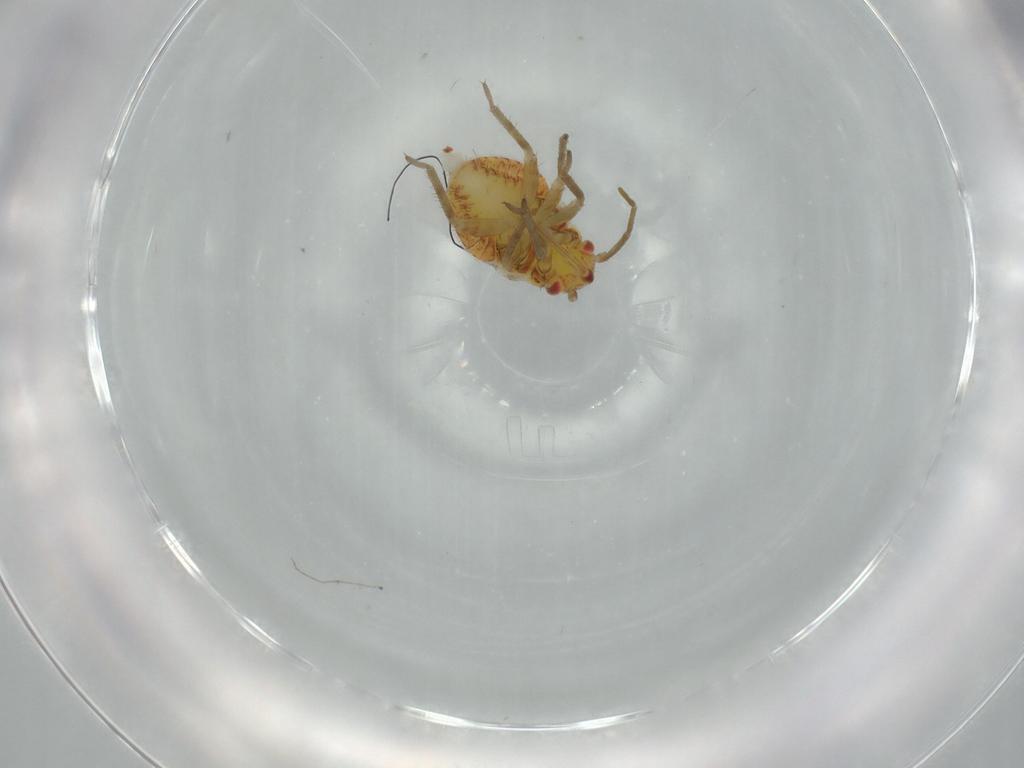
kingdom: Animalia
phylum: Arthropoda
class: Insecta
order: Hemiptera
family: Miridae
